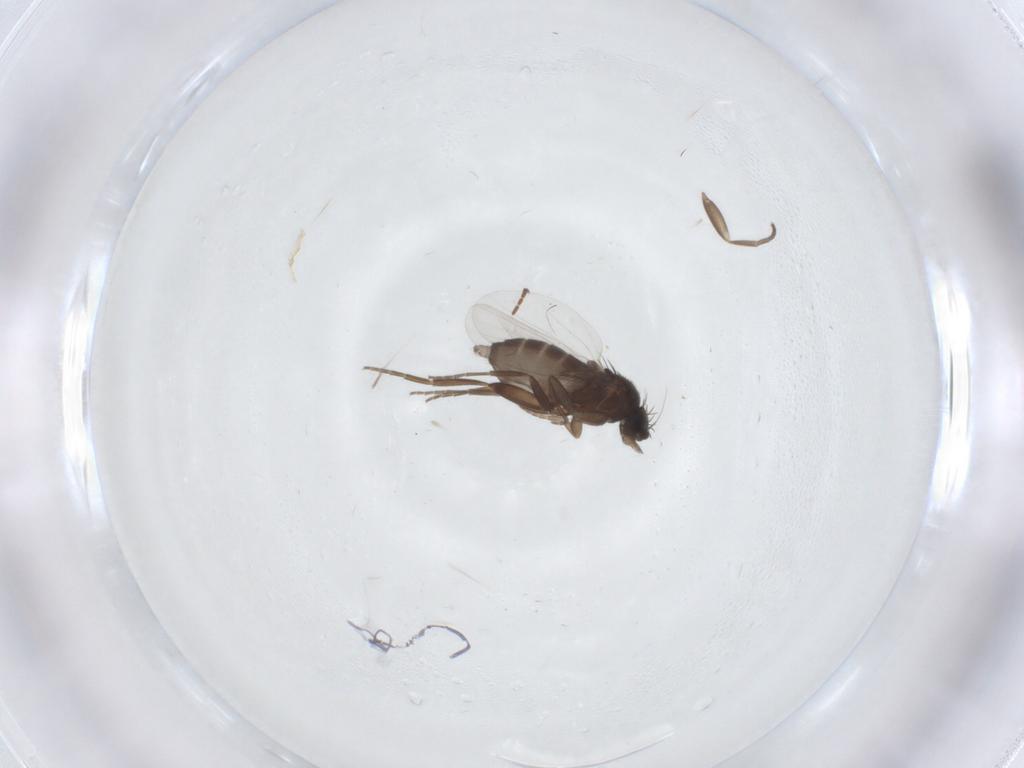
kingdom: Animalia
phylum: Arthropoda
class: Insecta
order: Diptera
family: Phoridae
